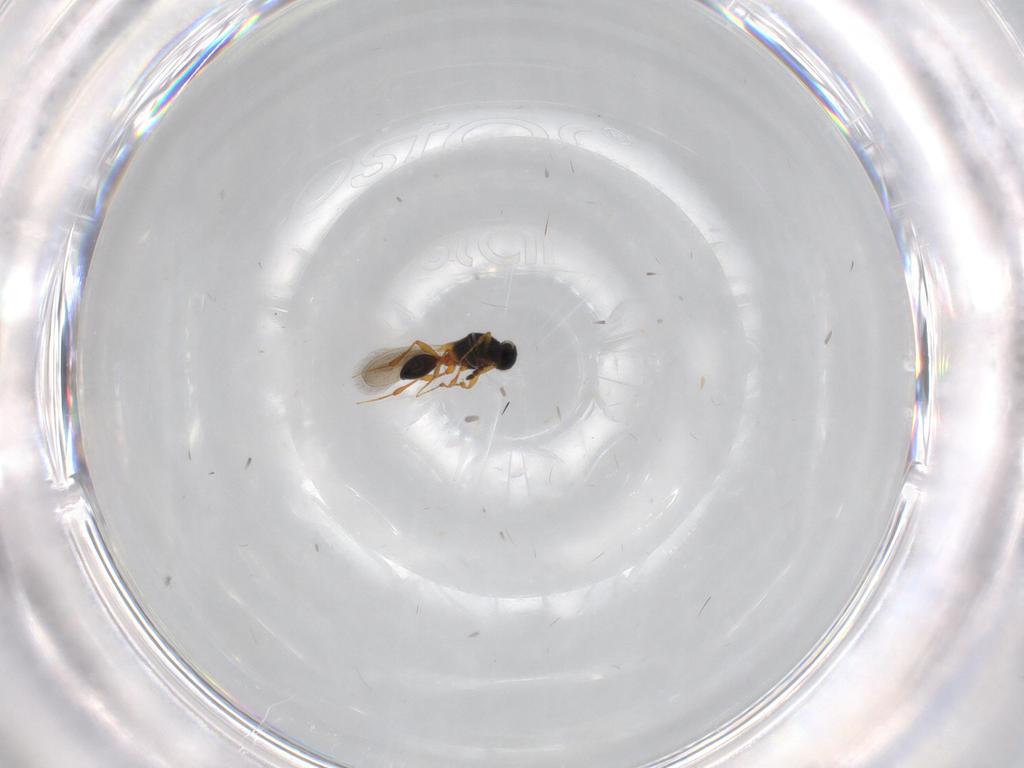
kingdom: Animalia
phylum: Arthropoda
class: Insecta
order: Hymenoptera
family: Platygastridae
